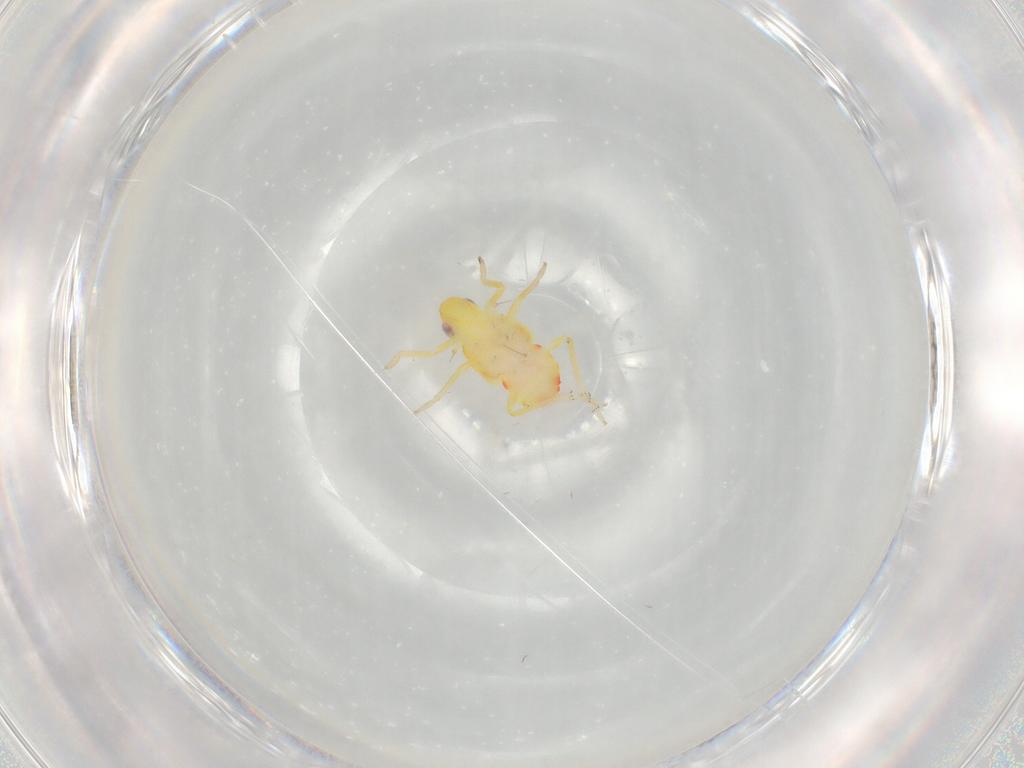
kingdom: Animalia
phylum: Arthropoda
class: Insecta
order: Hemiptera
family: Tropiduchidae
